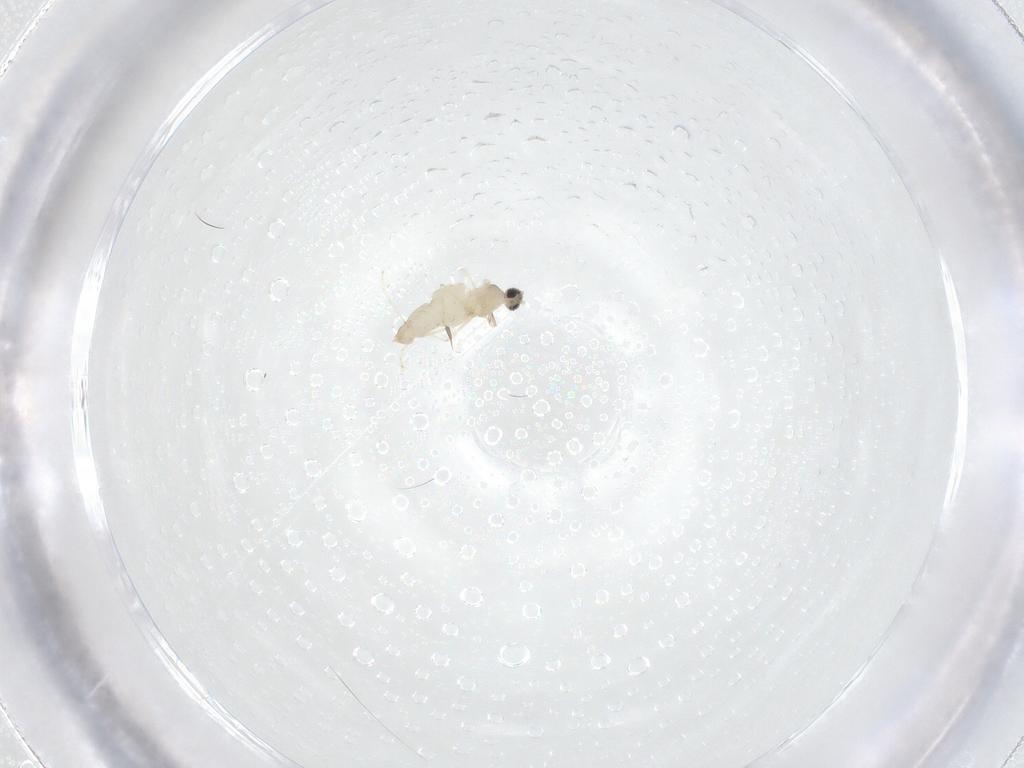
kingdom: Animalia
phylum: Arthropoda
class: Insecta
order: Diptera
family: Cecidomyiidae
